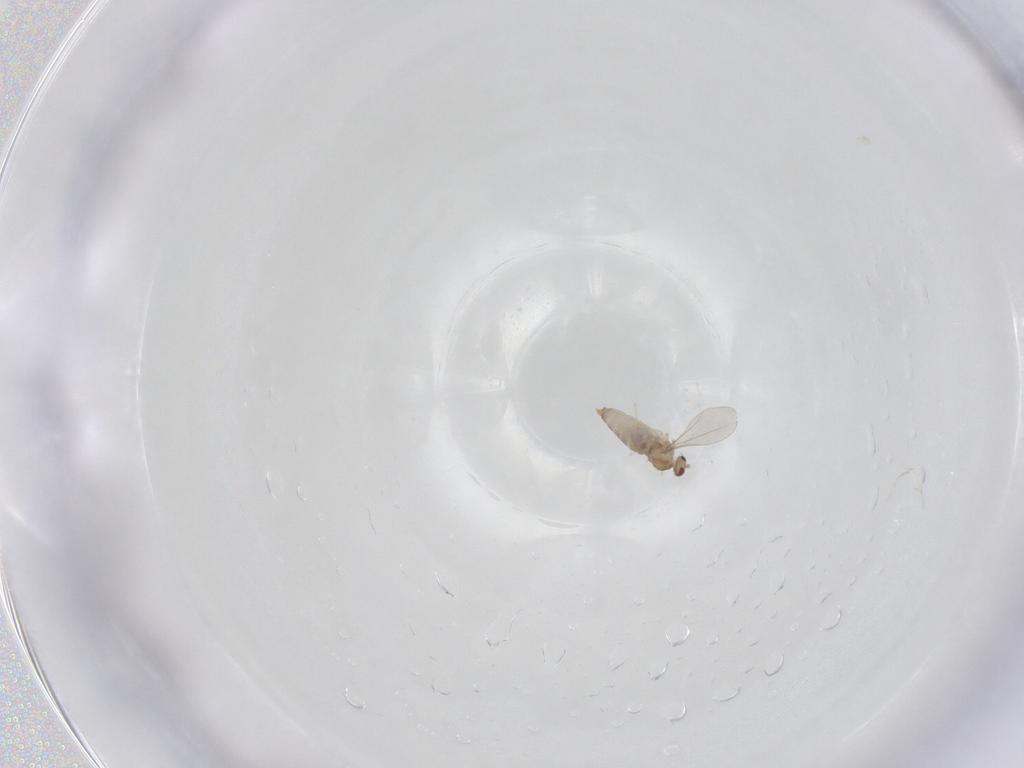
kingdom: Animalia
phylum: Arthropoda
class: Insecta
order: Diptera
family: Cecidomyiidae
